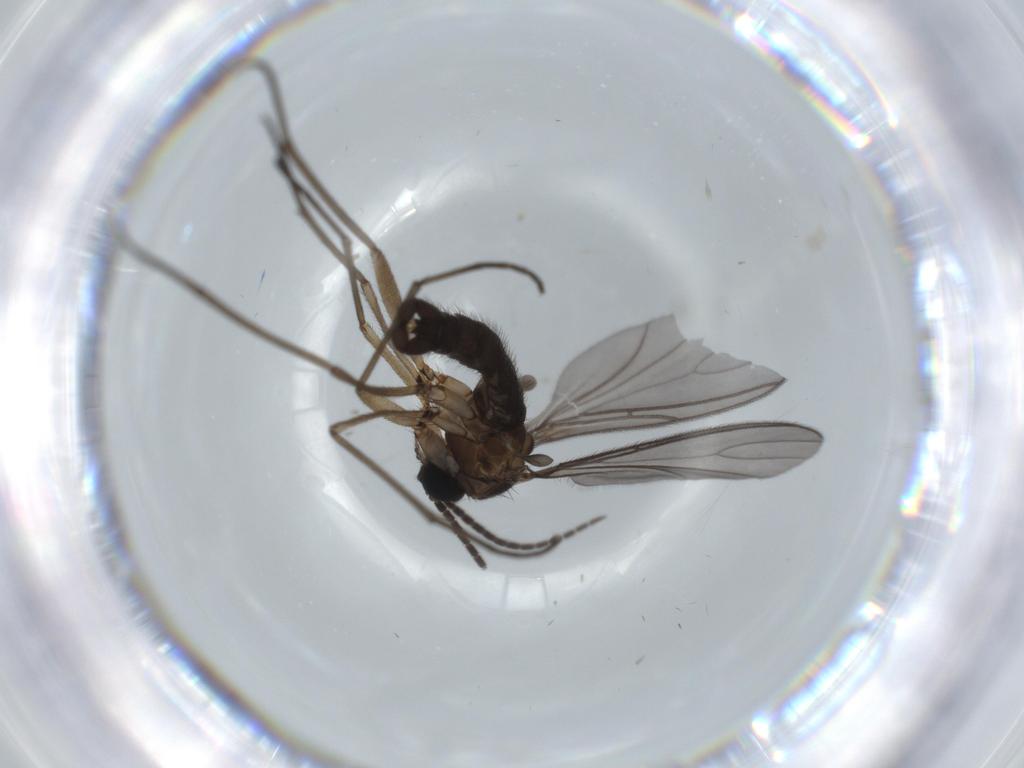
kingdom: Animalia
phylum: Arthropoda
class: Insecta
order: Diptera
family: Sciaridae
